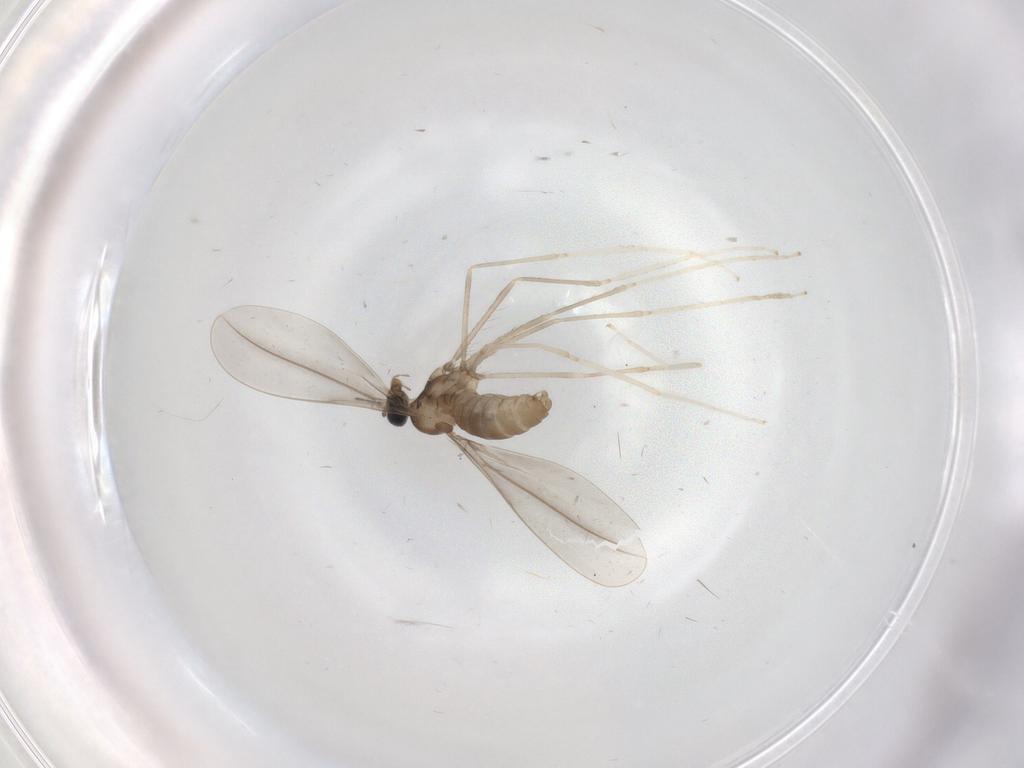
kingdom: Animalia
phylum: Arthropoda
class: Insecta
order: Diptera
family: Cecidomyiidae
